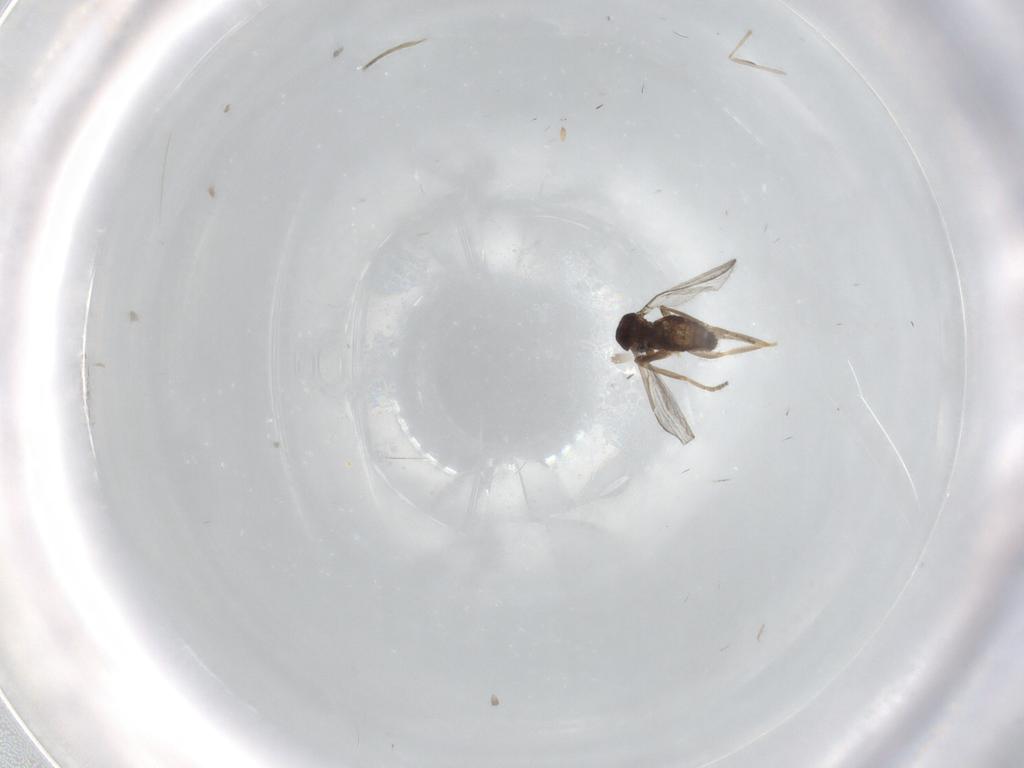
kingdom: Animalia
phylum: Arthropoda
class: Insecta
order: Diptera
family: Ceratopogonidae
